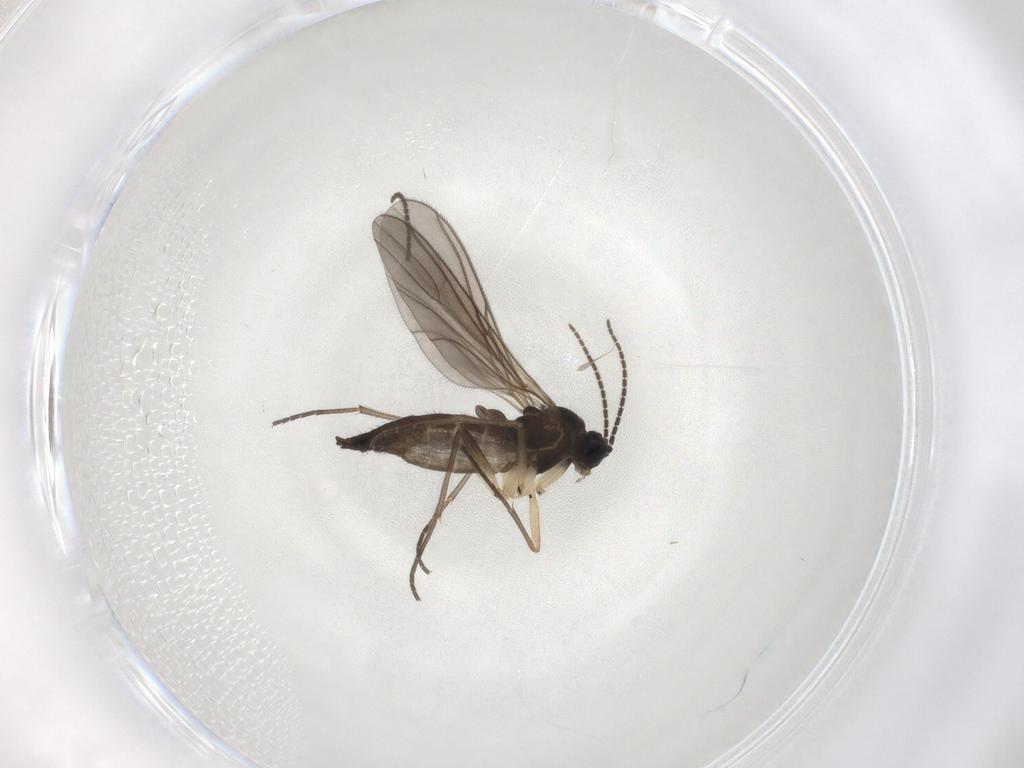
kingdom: Animalia
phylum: Arthropoda
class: Insecta
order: Diptera
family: Sciaridae
